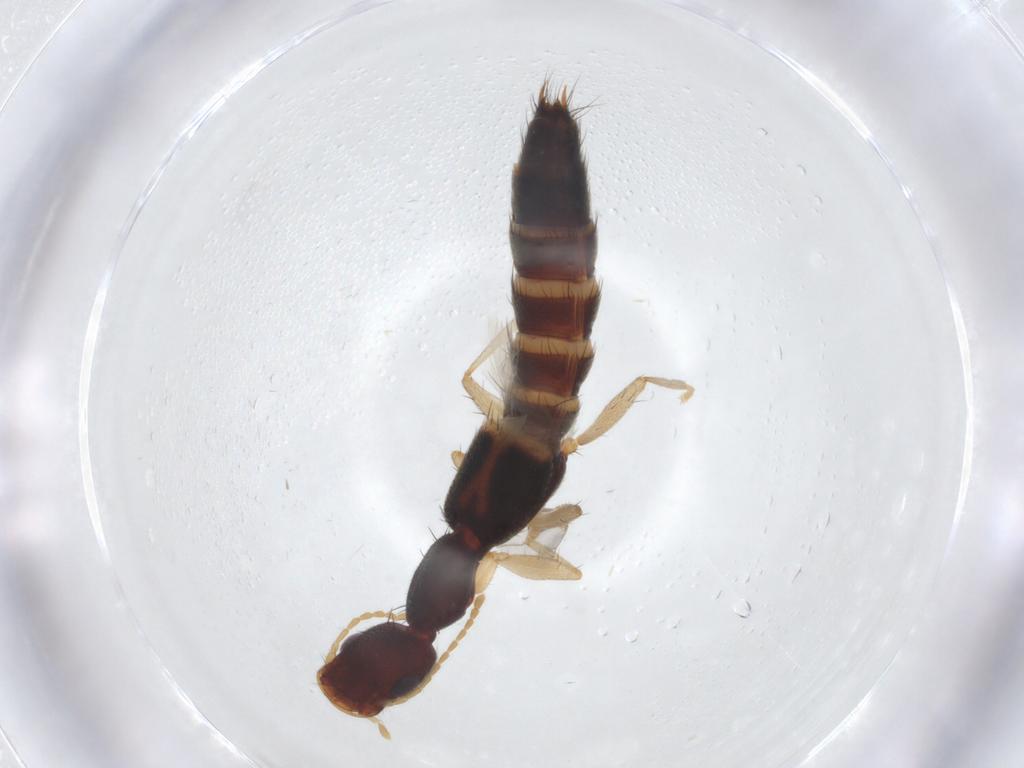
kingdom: Animalia
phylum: Arthropoda
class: Insecta
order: Coleoptera
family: Staphylinidae
